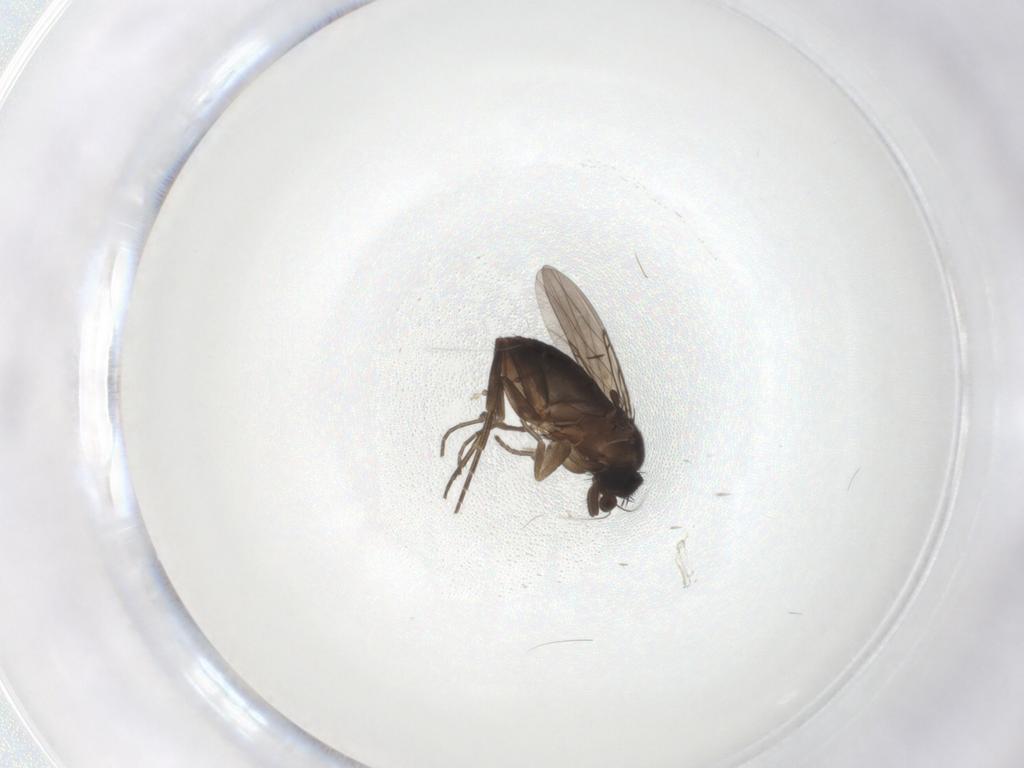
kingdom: Animalia
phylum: Arthropoda
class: Insecta
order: Diptera
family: Phoridae
